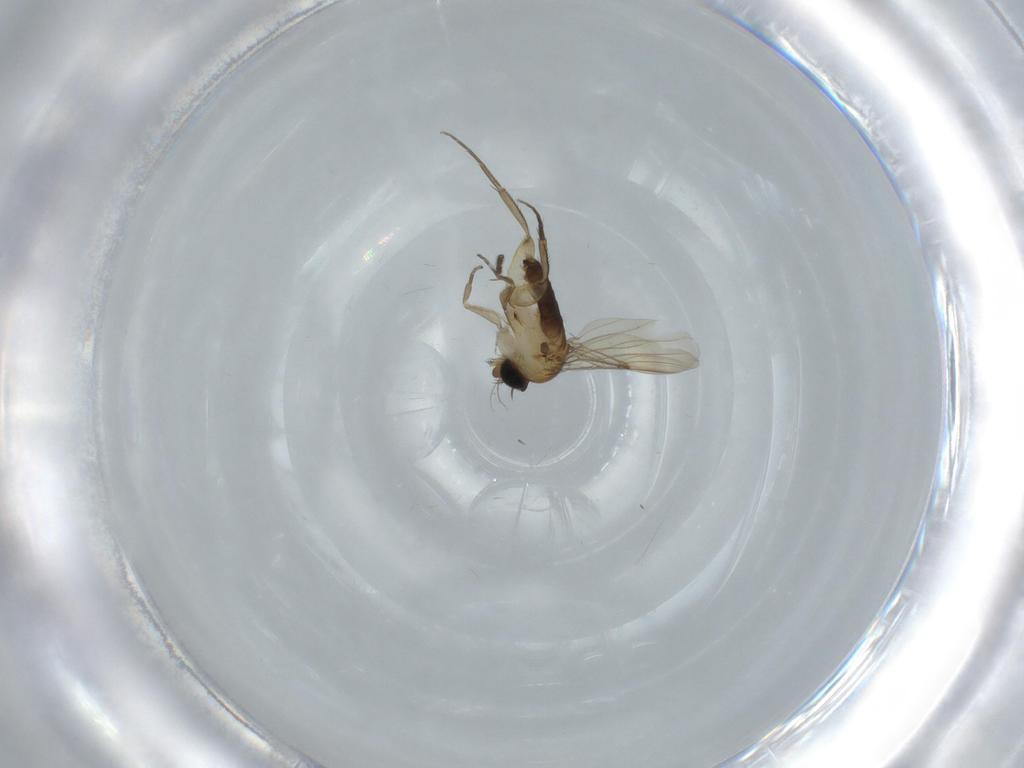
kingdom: Animalia
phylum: Arthropoda
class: Insecta
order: Diptera
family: Phoridae
